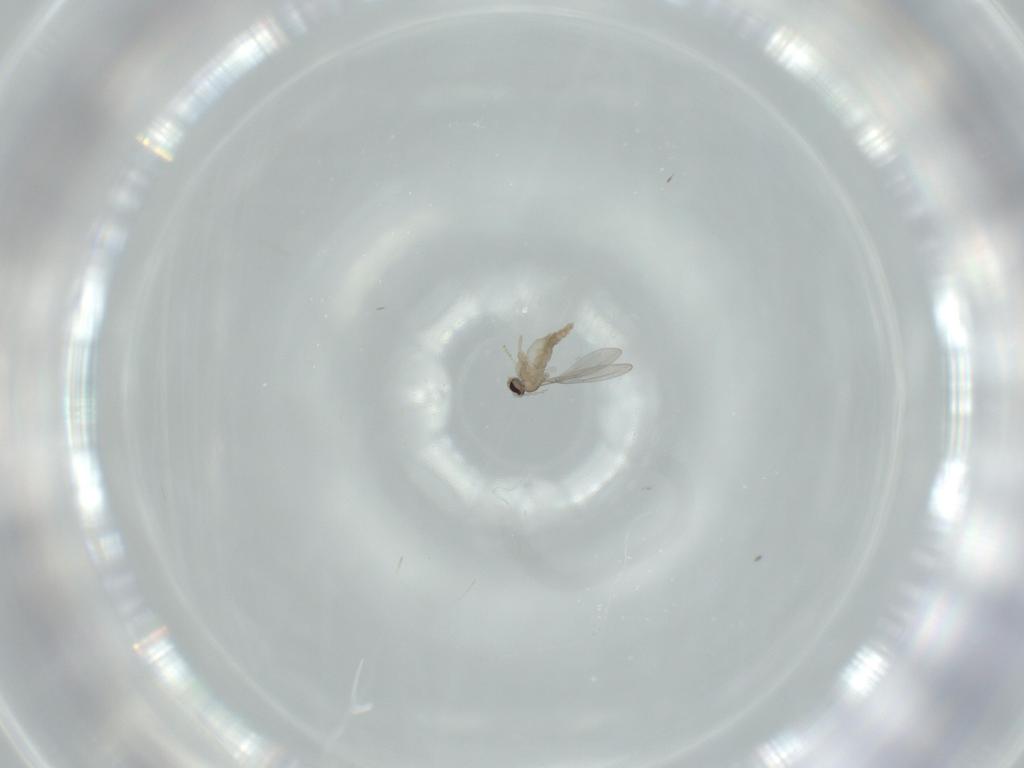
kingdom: Animalia
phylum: Arthropoda
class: Insecta
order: Diptera
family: Cecidomyiidae
